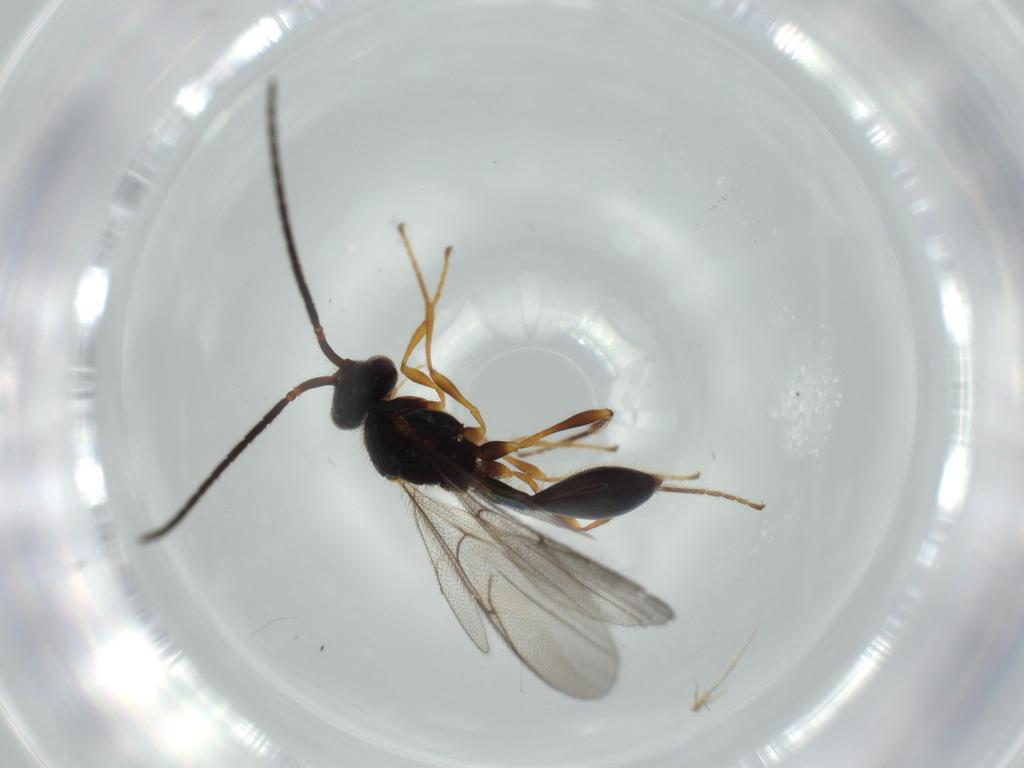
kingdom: Animalia
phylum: Arthropoda
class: Insecta
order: Hymenoptera
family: Diapriidae
